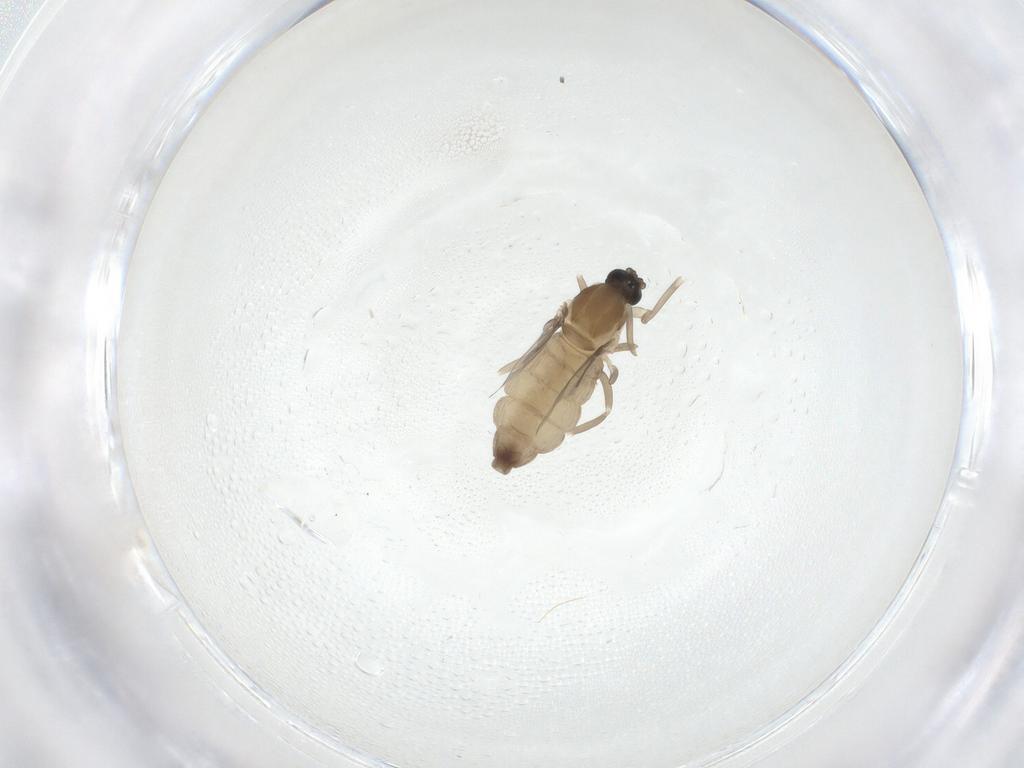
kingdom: Animalia
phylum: Arthropoda
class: Insecta
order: Diptera
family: Cecidomyiidae
